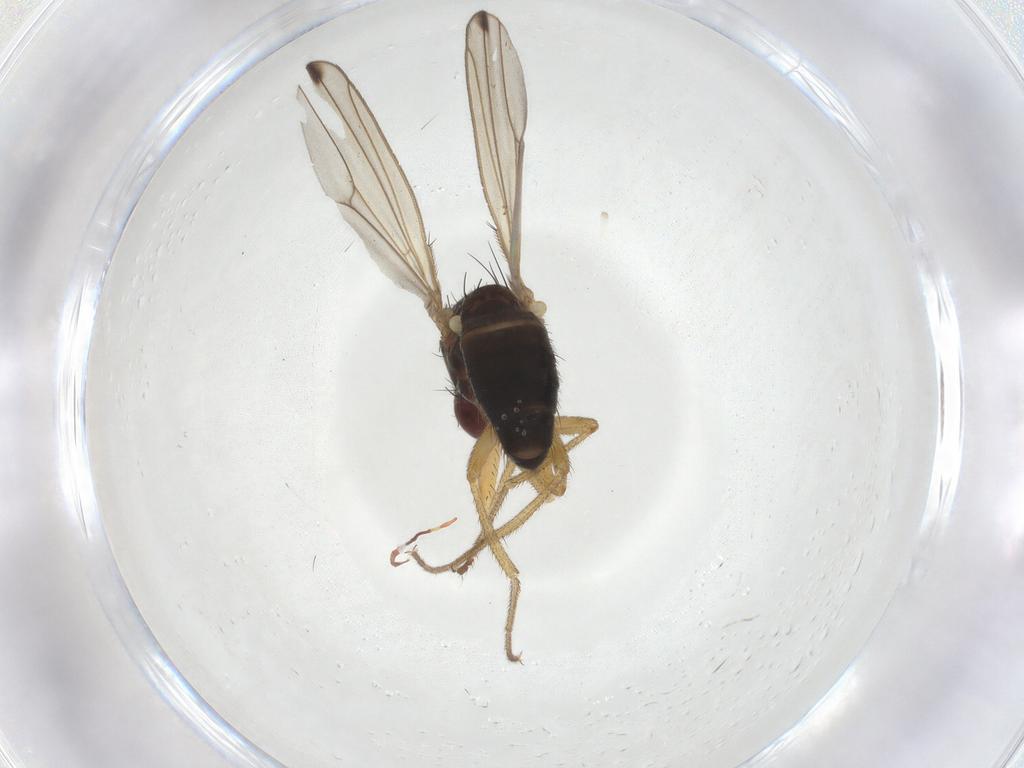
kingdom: Animalia
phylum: Arthropoda
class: Insecta
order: Diptera
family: Drosophilidae
